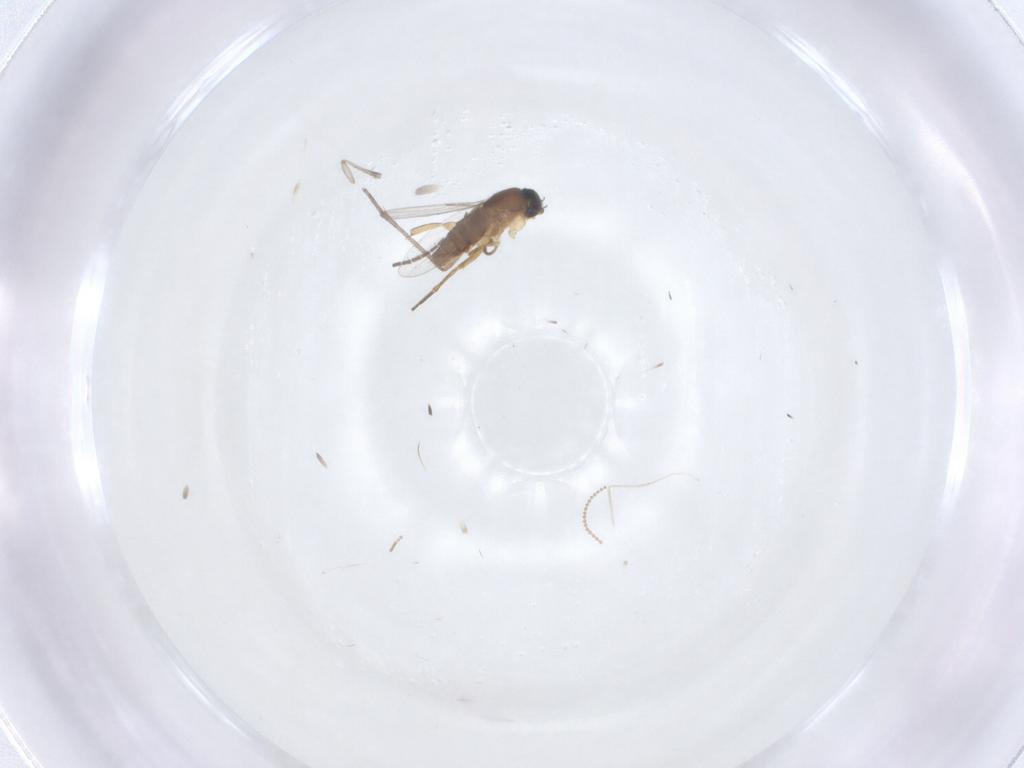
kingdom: Animalia
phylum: Arthropoda
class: Insecta
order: Diptera
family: Sciaridae
